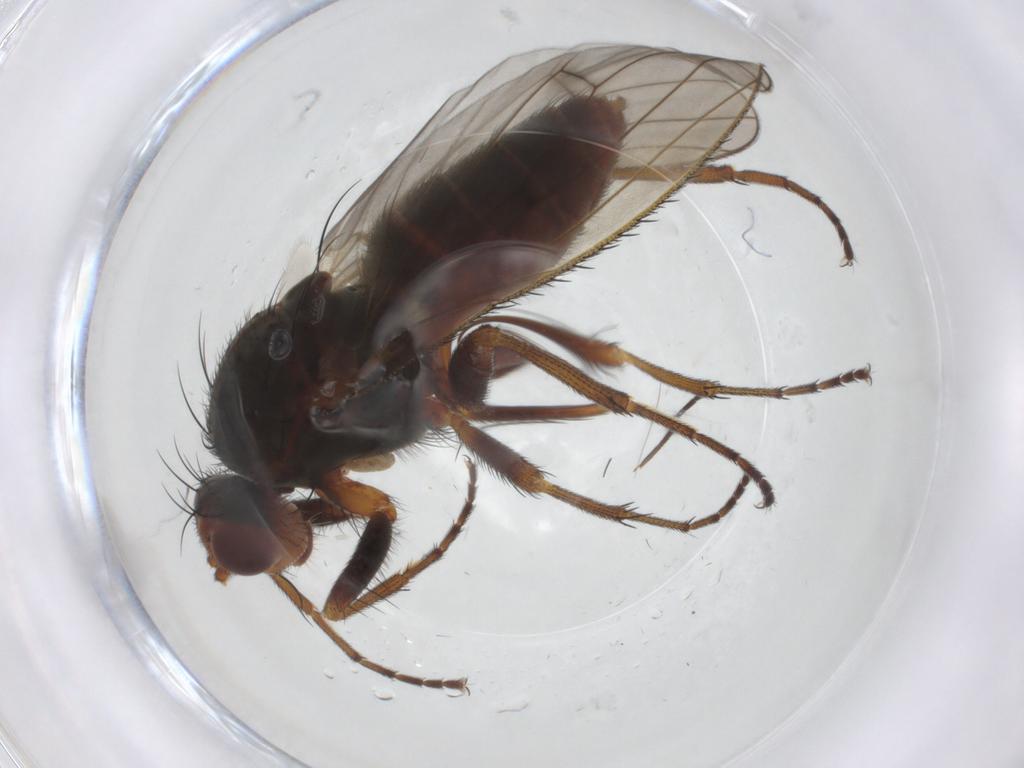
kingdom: Animalia
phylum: Arthropoda
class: Insecta
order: Diptera
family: Heleomyzidae
